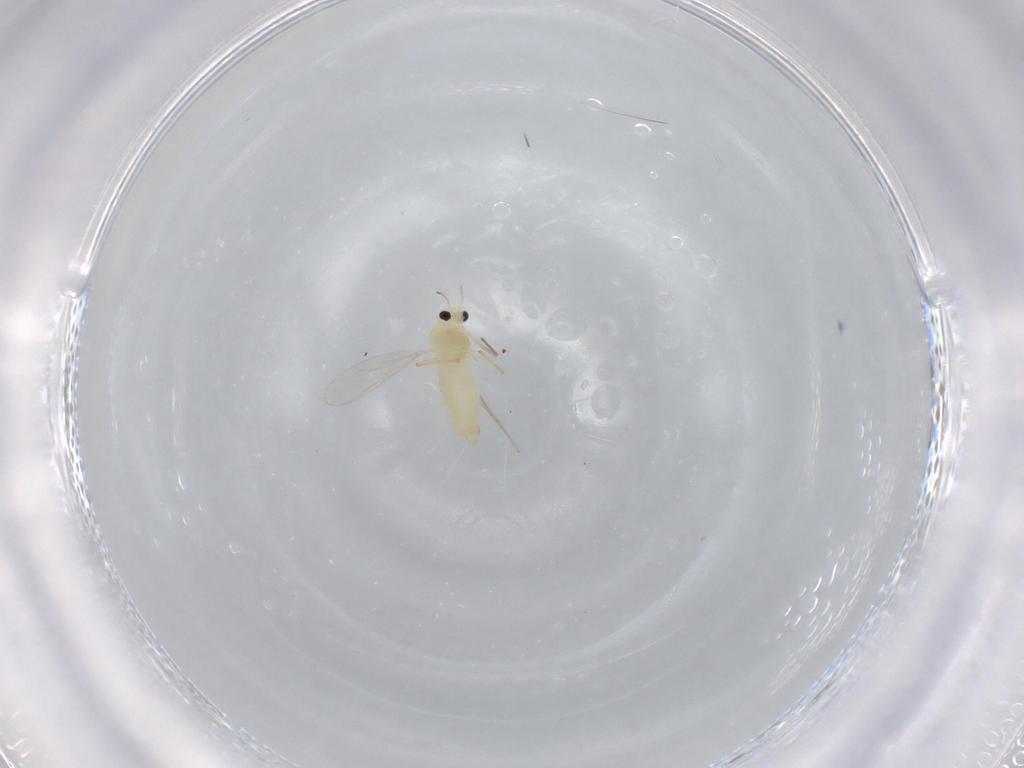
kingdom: Animalia
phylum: Arthropoda
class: Insecta
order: Diptera
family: Chironomidae
